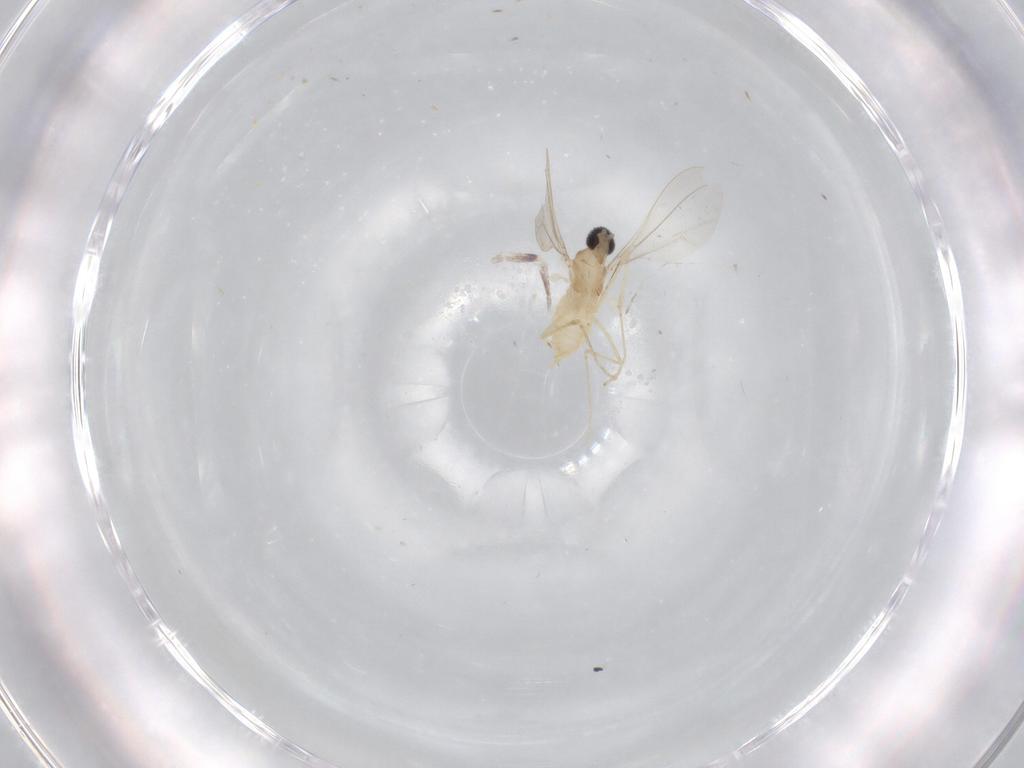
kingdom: Animalia
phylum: Arthropoda
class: Insecta
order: Diptera
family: Cecidomyiidae
